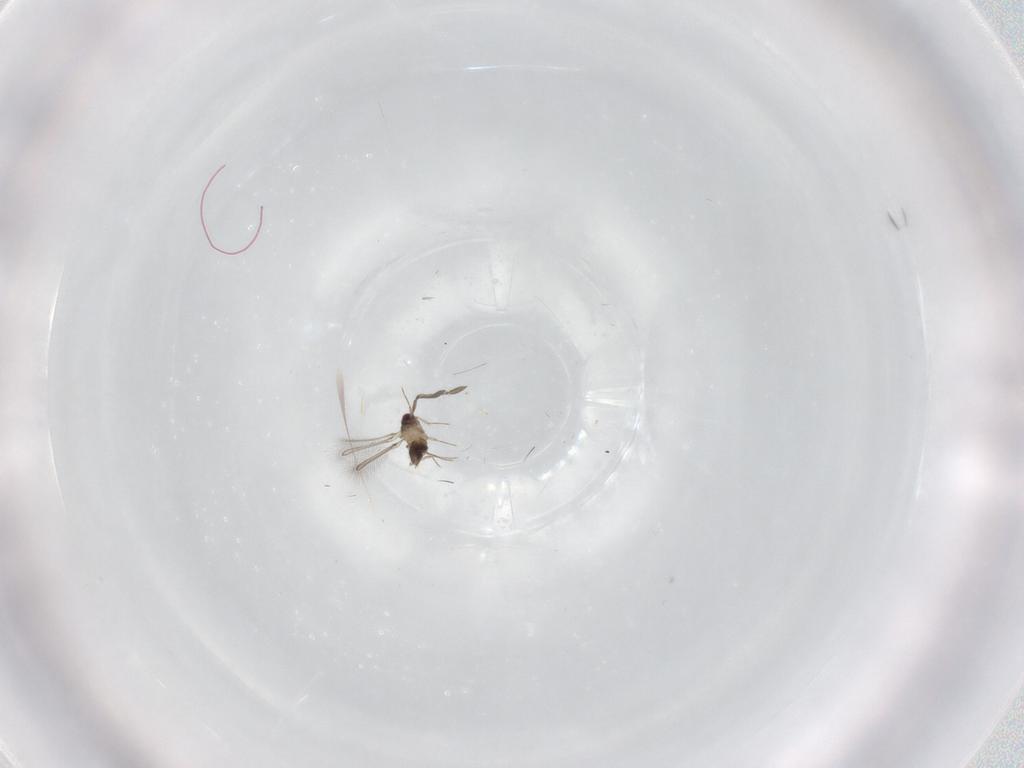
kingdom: Animalia
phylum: Arthropoda
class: Insecta
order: Hymenoptera
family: Mymaridae
